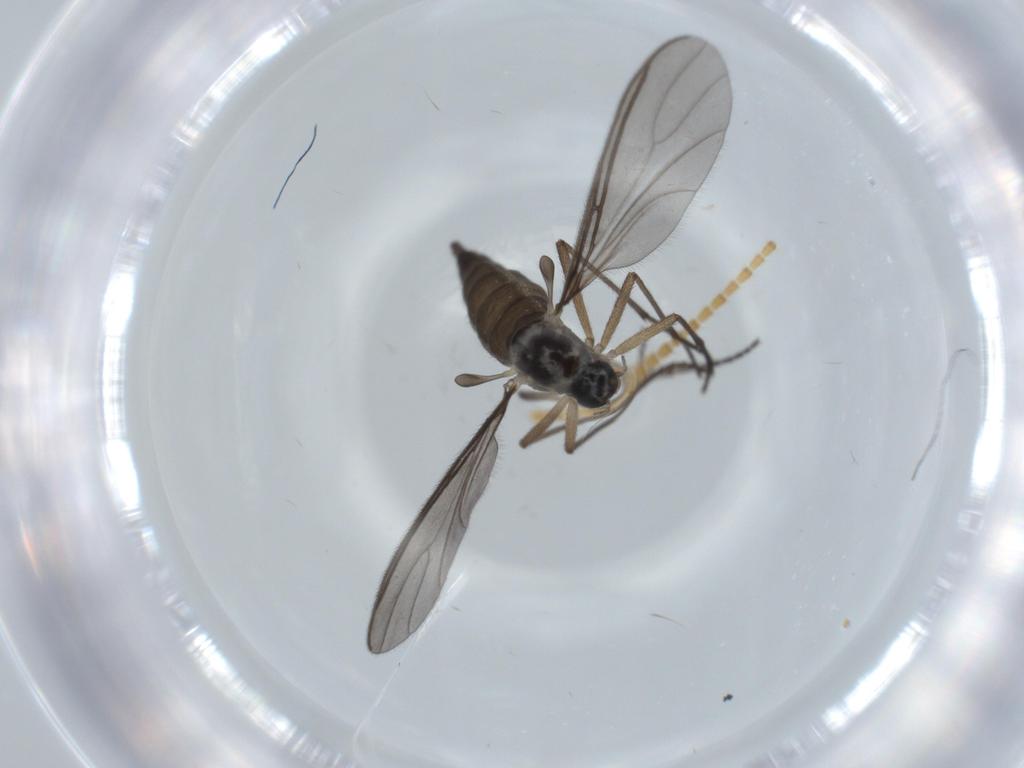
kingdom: Animalia
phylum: Arthropoda
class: Insecta
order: Diptera
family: Sciaridae
